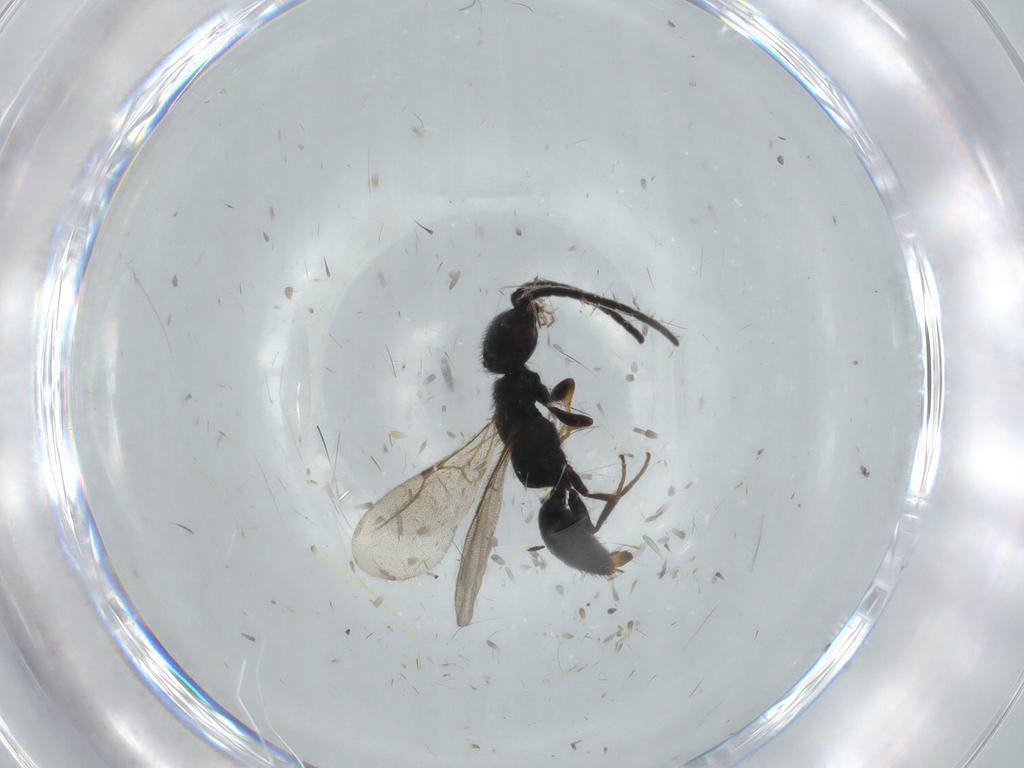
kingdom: Animalia
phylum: Arthropoda
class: Insecta
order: Hymenoptera
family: Bethylidae
